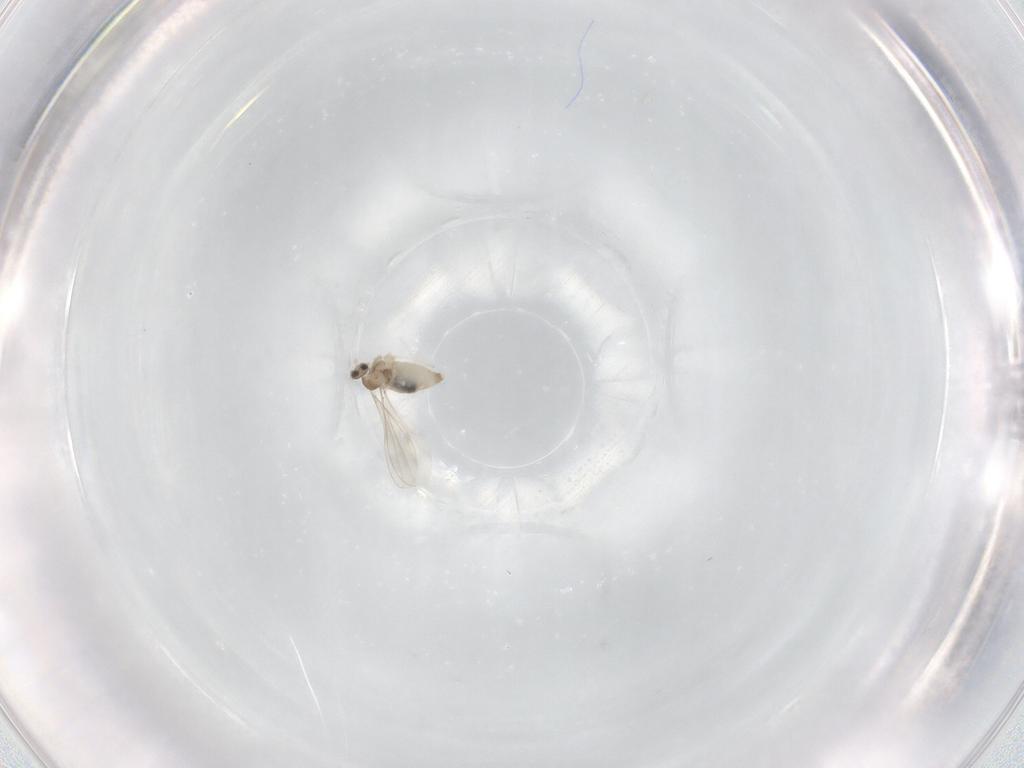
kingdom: Animalia
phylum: Arthropoda
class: Insecta
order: Diptera
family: Cecidomyiidae
